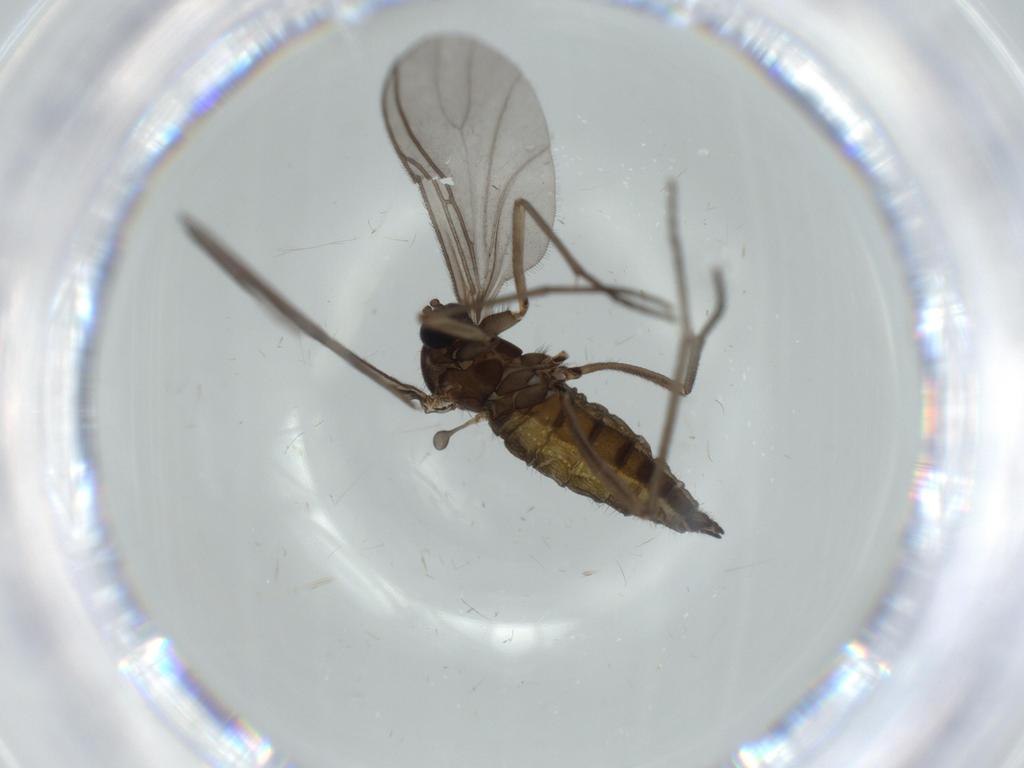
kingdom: Animalia
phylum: Arthropoda
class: Insecta
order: Diptera
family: Sciaridae
